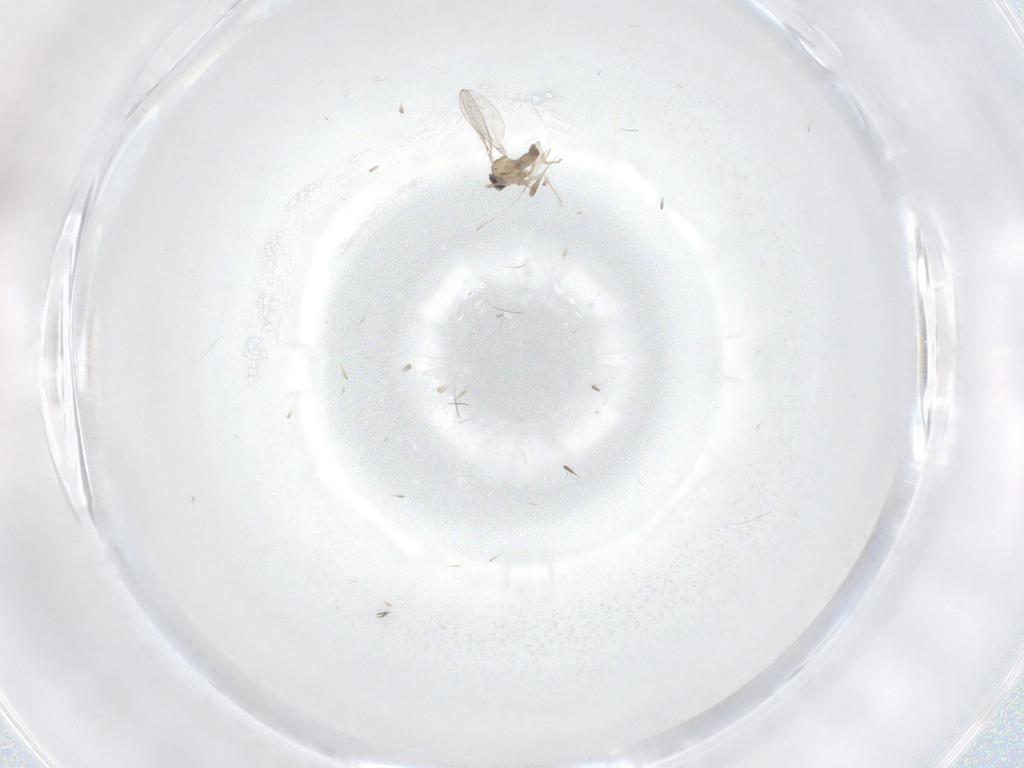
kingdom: Animalia
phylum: Arthropoda
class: Insecta
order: Diptera
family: Cecidomyiidae
